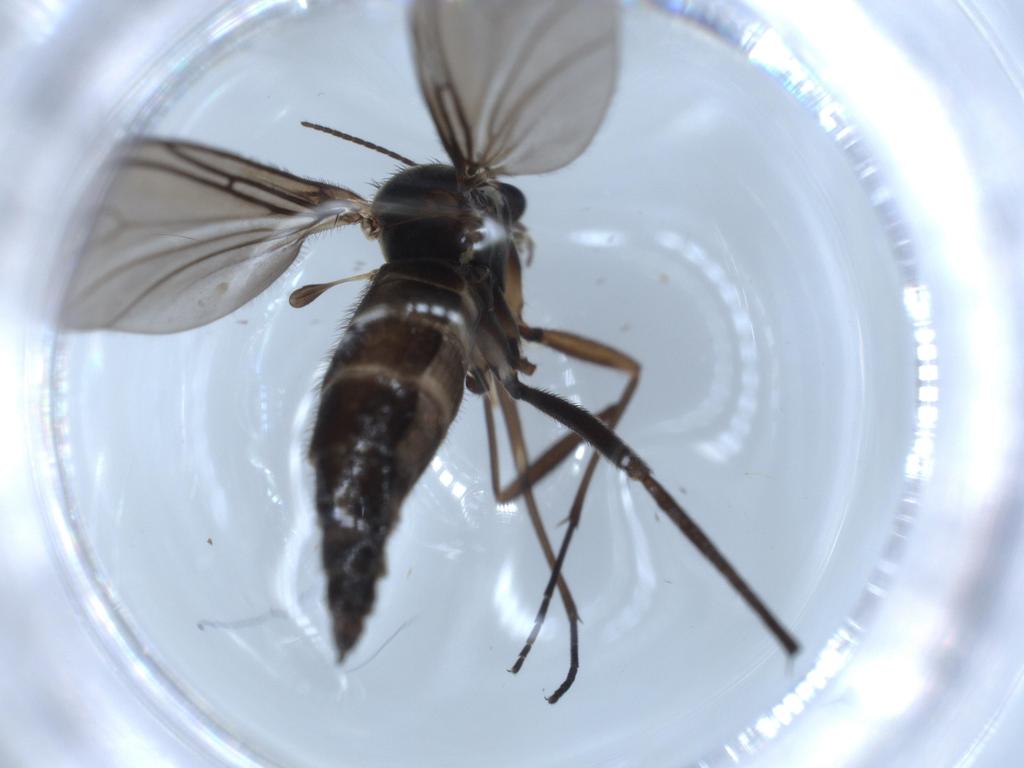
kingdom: Animalia
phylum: Arthropoda
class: Insecta
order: Diptera
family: Sciaridae
